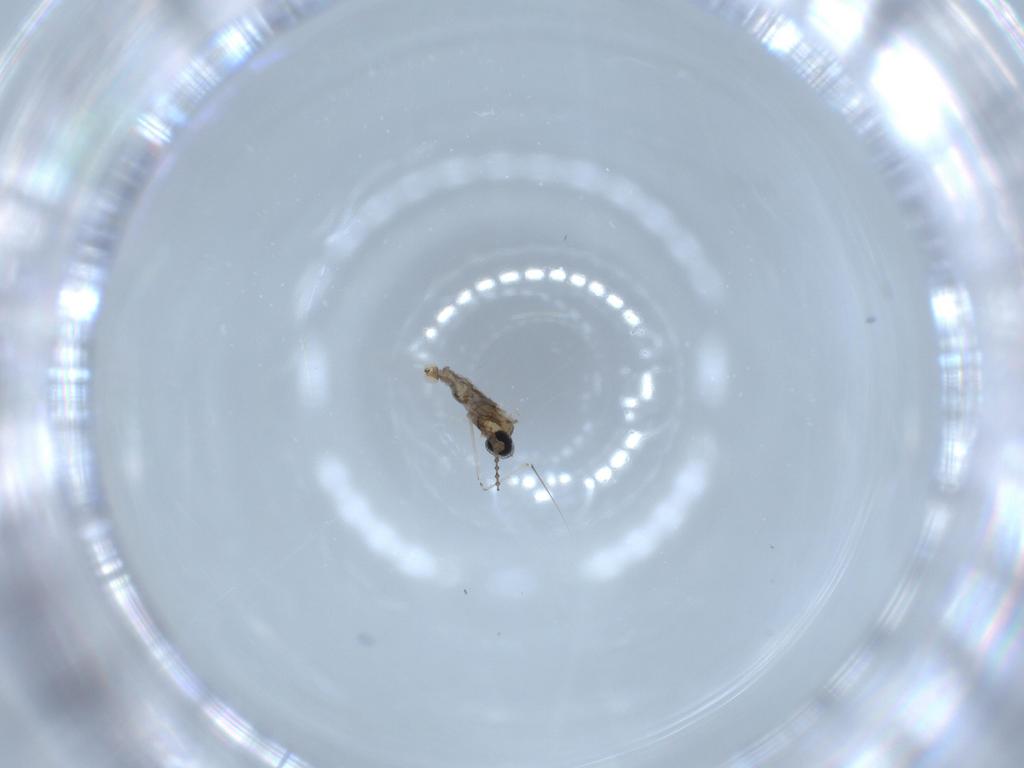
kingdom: Animalia
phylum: Arthropoda
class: Insecta
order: Diptera
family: Cecidomyiidae
